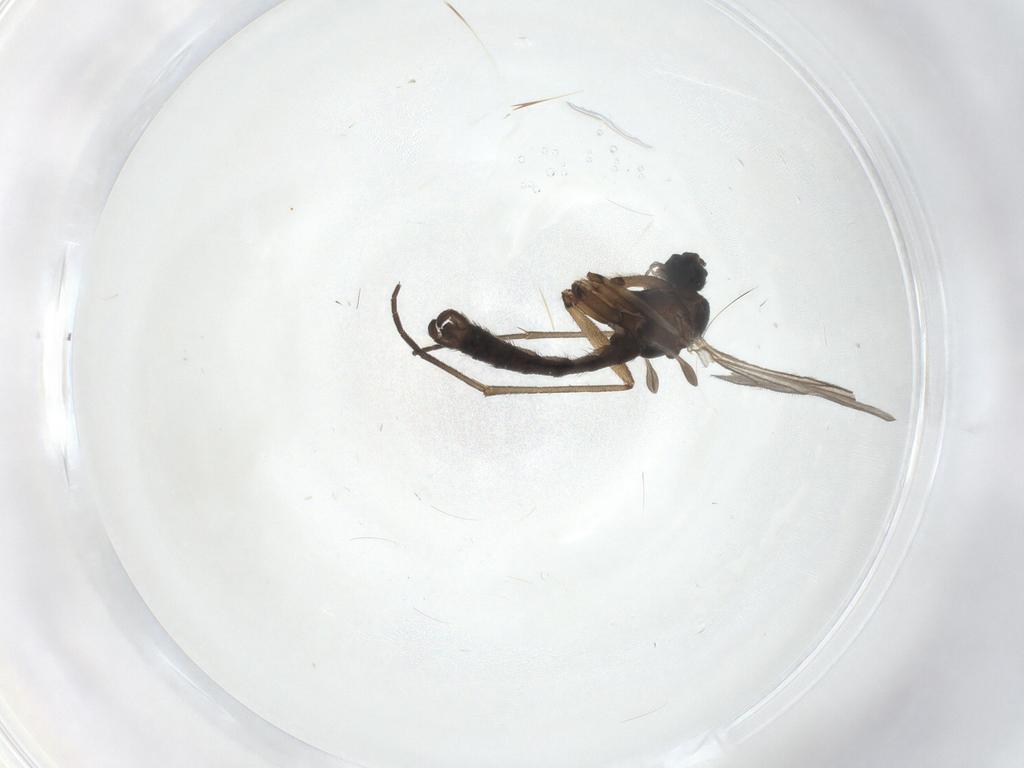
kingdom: Animalia
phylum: Arthropoda
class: Insecta
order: Diptera
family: Sciaridae
